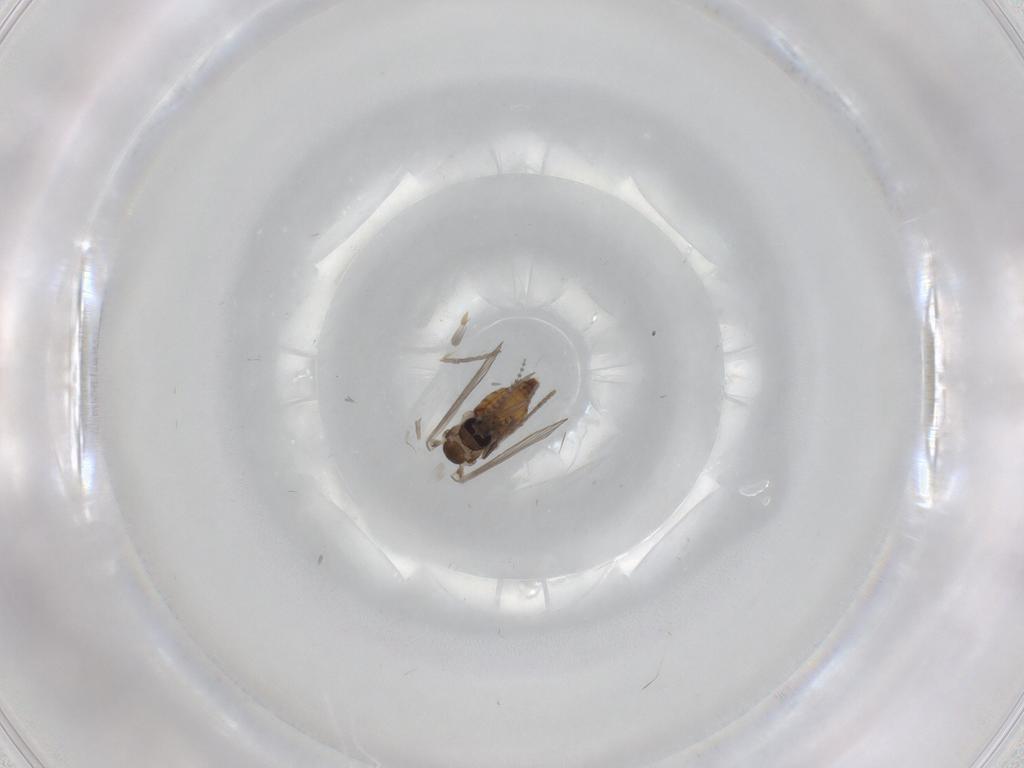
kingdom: Animalia
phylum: Arthropoda
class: Insecta
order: Diptera
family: Psychodidae
